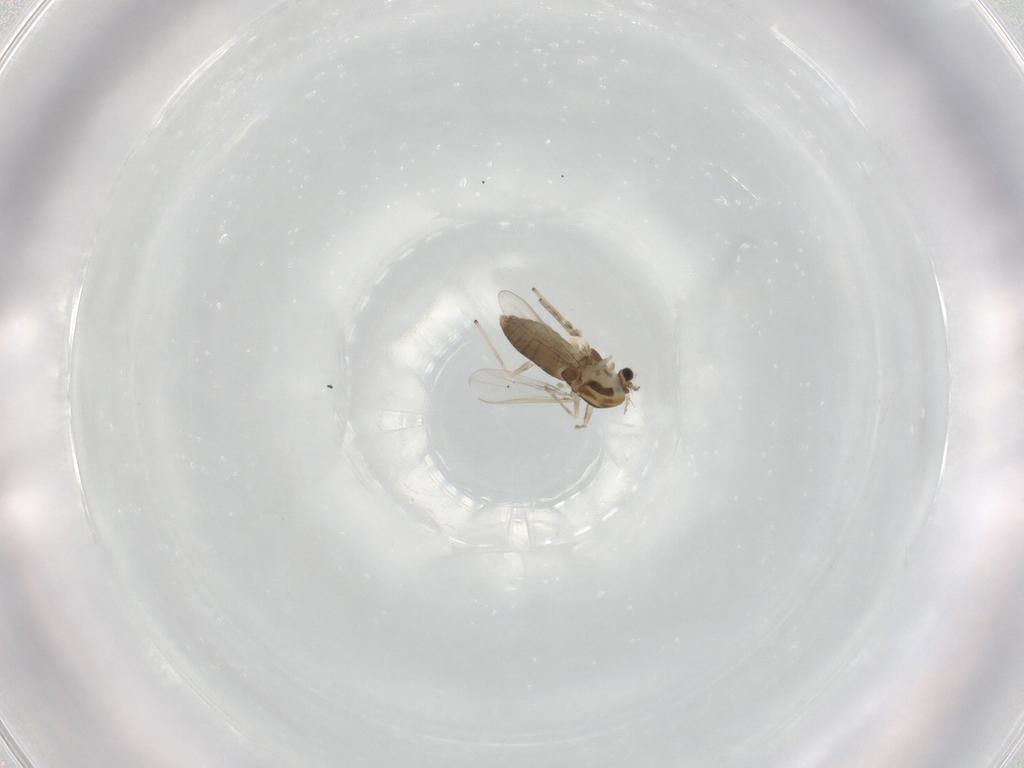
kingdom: Animalia
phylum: Arthropoda
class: Insecta
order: Diptera
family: Chironomidae
